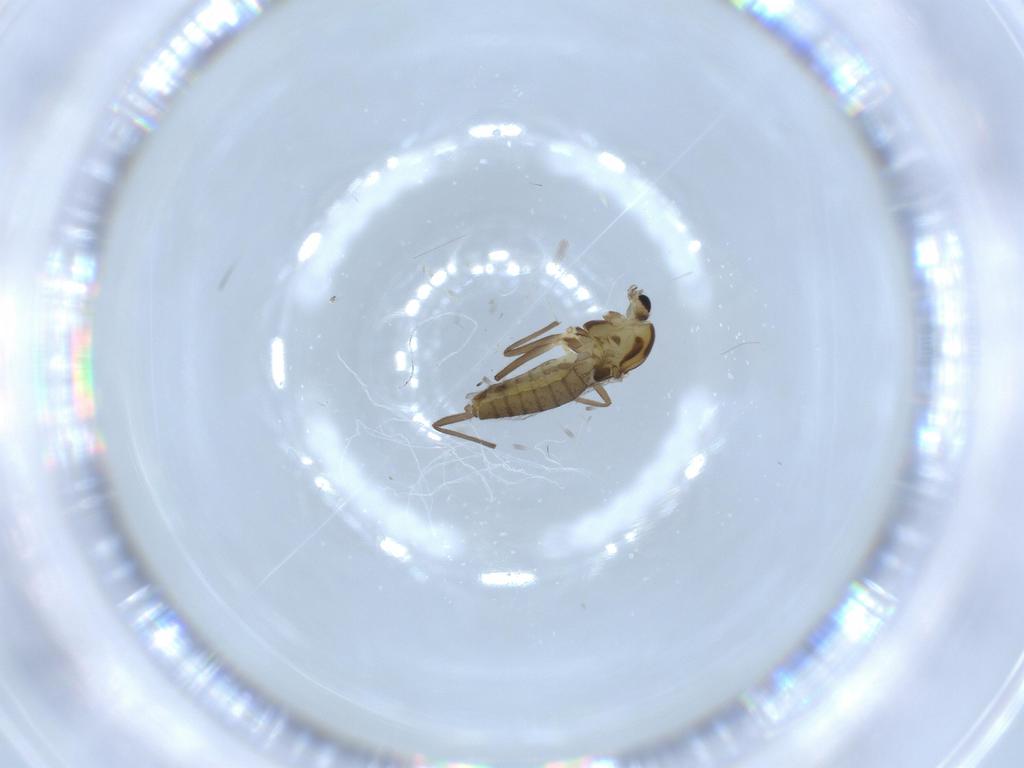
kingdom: Animalia
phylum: Arthropoda
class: Insecta
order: Diptera
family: Chironomidae
